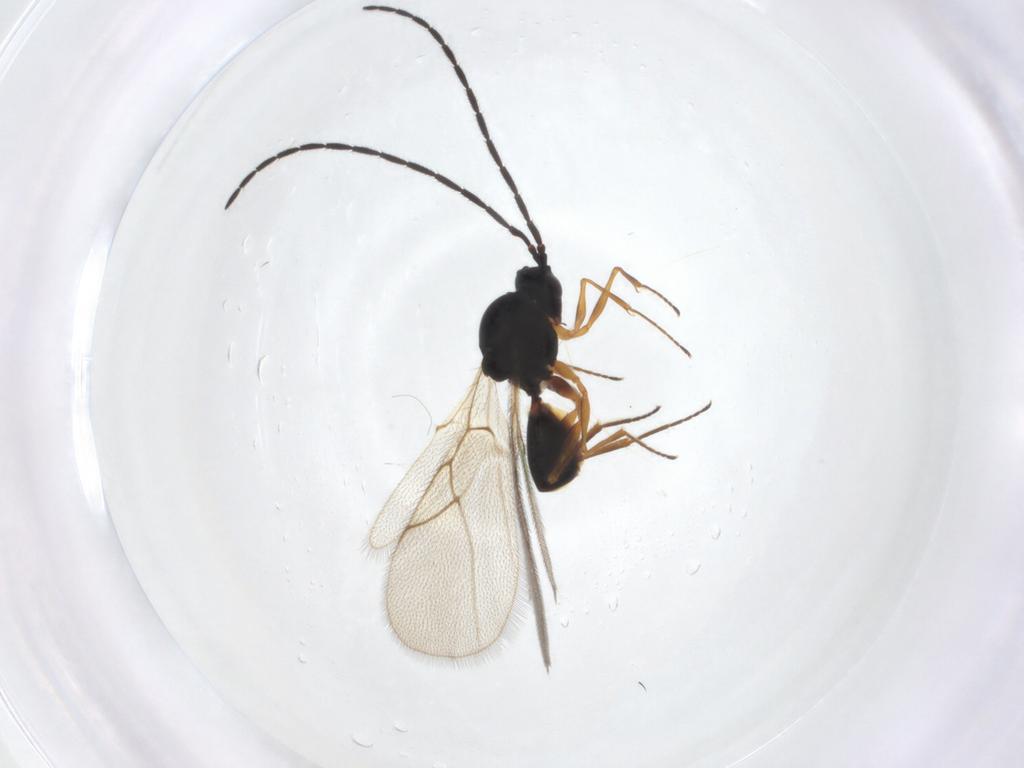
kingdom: Animalia
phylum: Arthropoda
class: Insecta
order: Hymenoptera
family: Figitidae
